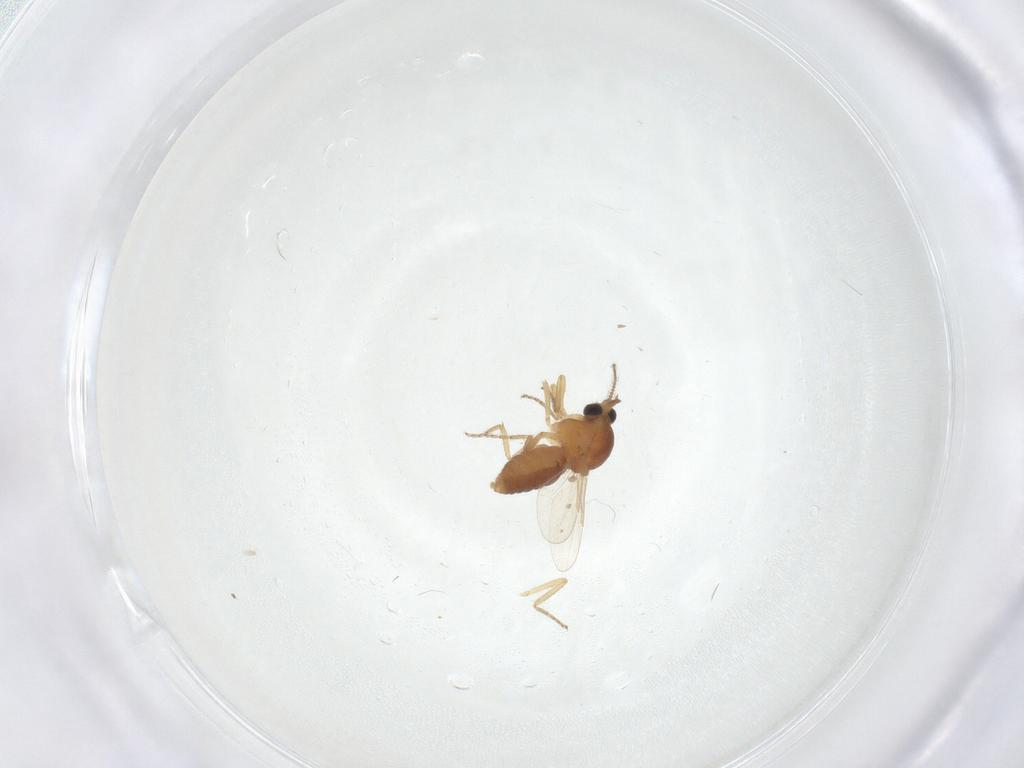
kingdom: Animalia
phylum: Arthropoda
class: Insecta
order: Diptera
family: Ceratopogonidae
